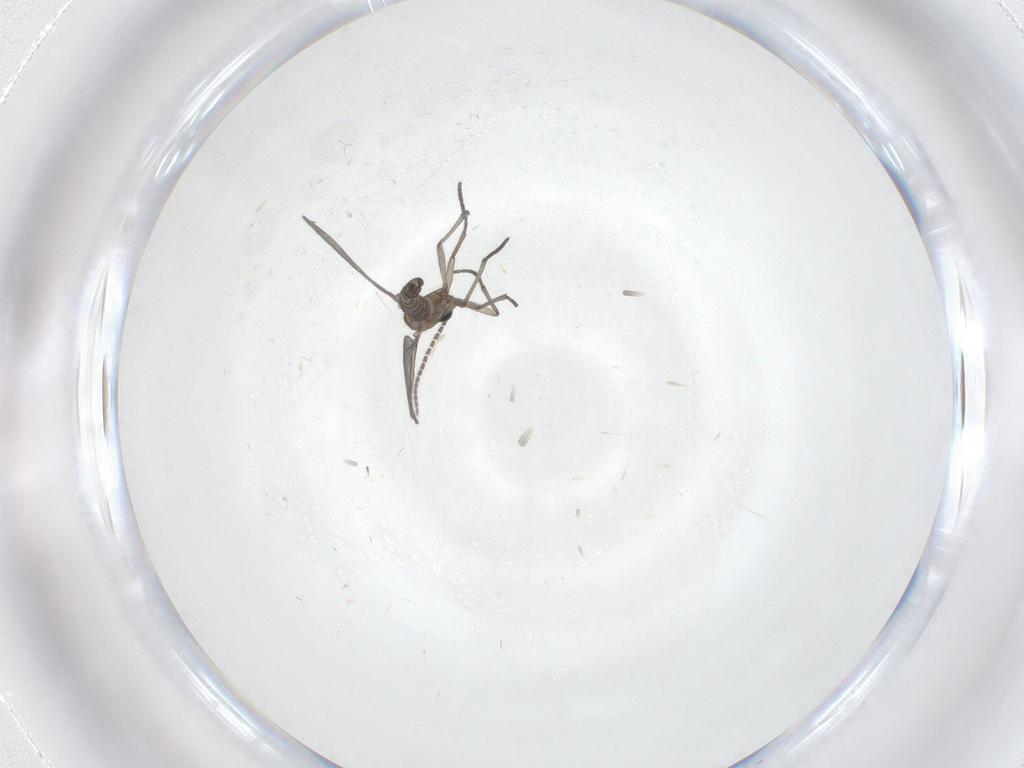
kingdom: Animalia
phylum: Arthropoda
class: Insecta
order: Diptera
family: Sciaridae
